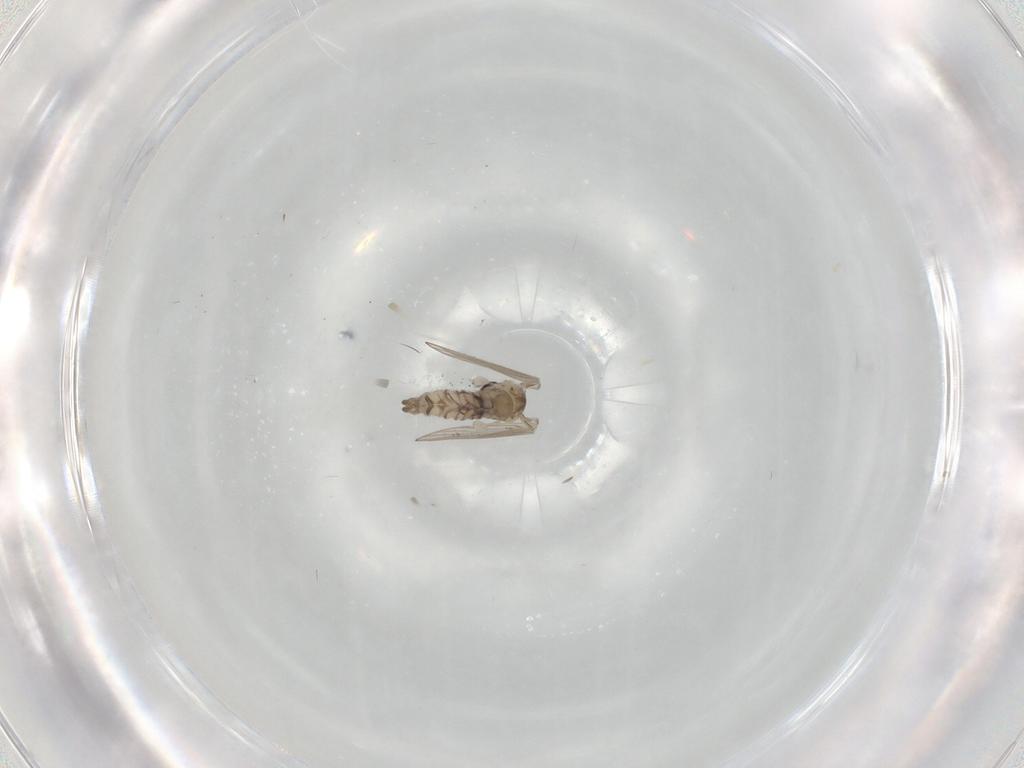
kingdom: Animalia
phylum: Arthropoda
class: Insecta
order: Diptera
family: Psychodidae
